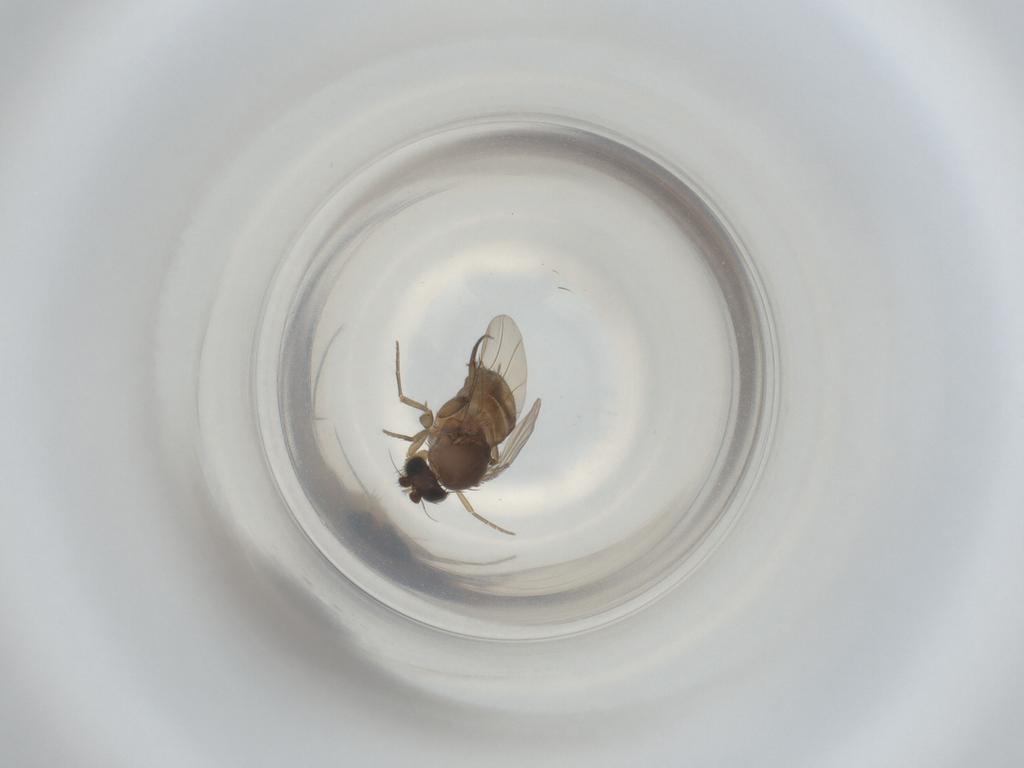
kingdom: Animalia
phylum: Arthropoda
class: Insecta
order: Diptera
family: Phoridae
